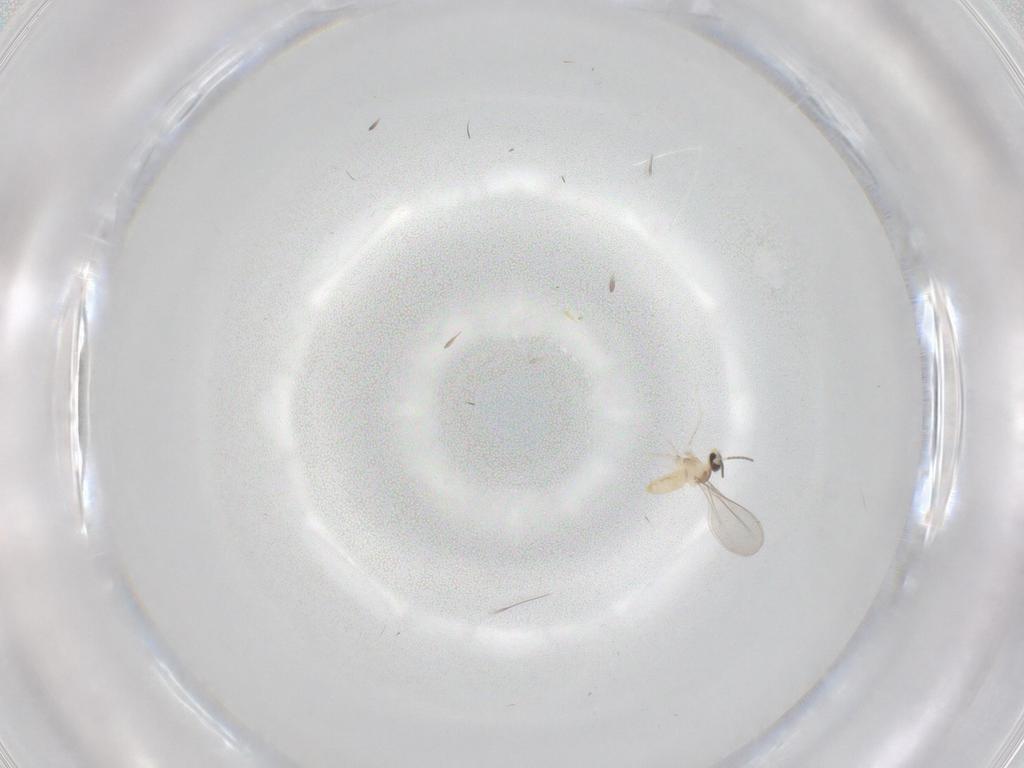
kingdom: Animalia
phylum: Arthropoda
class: Insecta
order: Diptera
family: Cecidomyiidae
